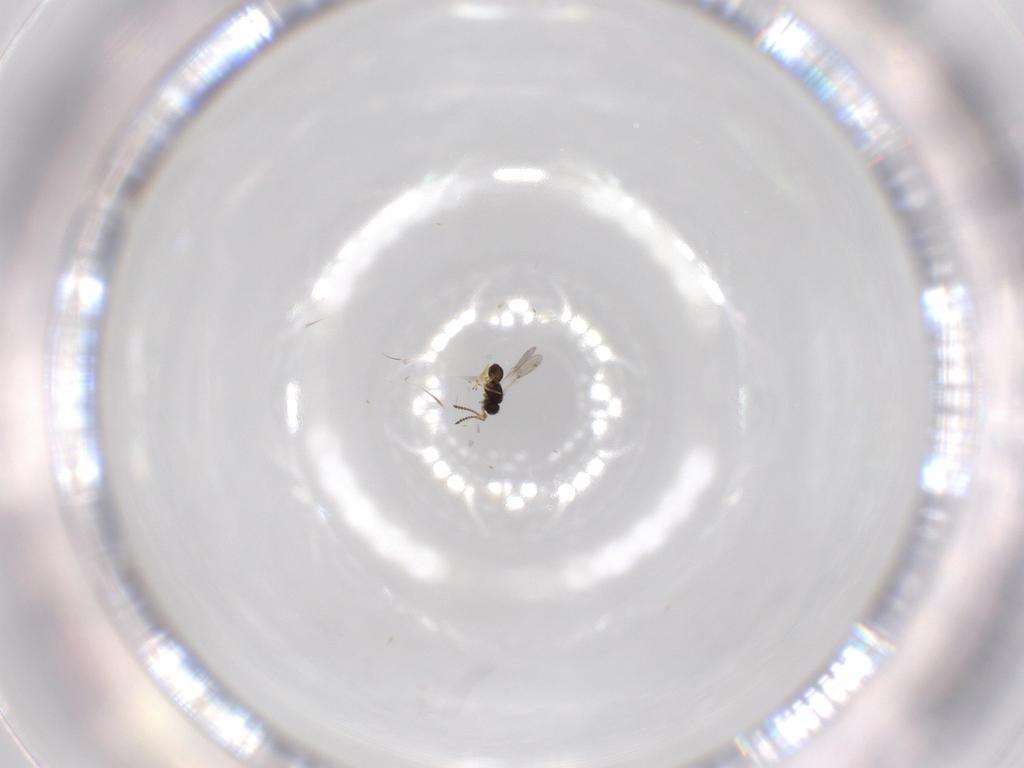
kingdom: Animalia
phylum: Arthropoda
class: Insecta
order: Hymenoptera
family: Scelionidae
